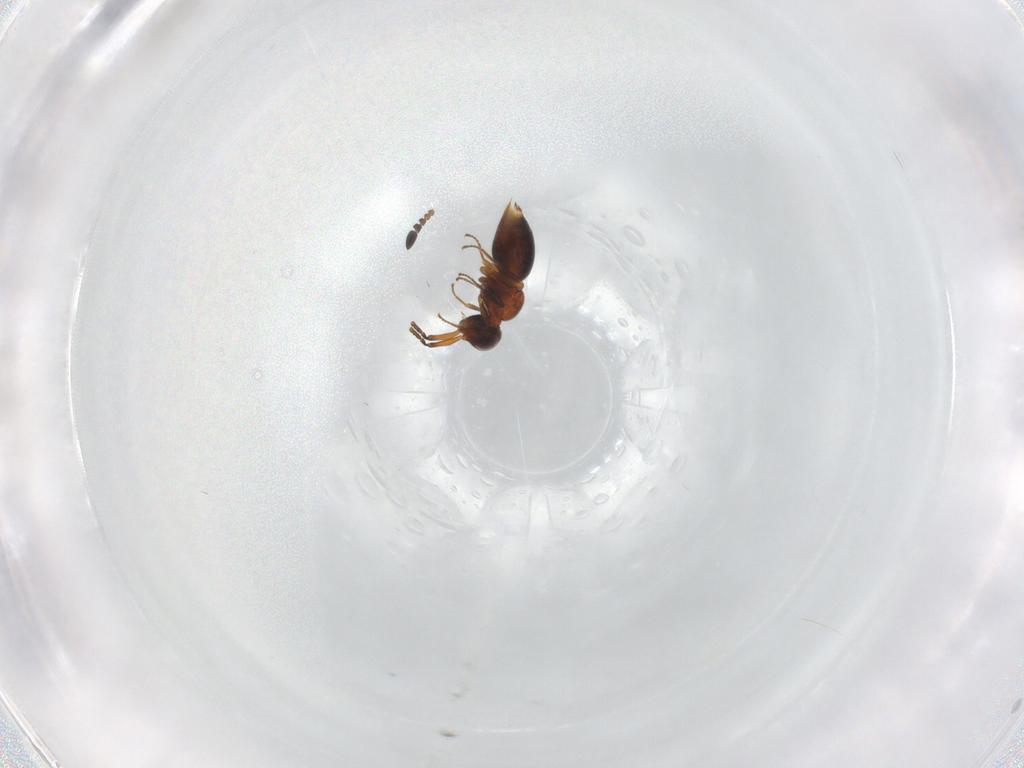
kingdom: Animalia
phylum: Arthropoda
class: Insecta
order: Hymenoptera
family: Ceraphronidae
